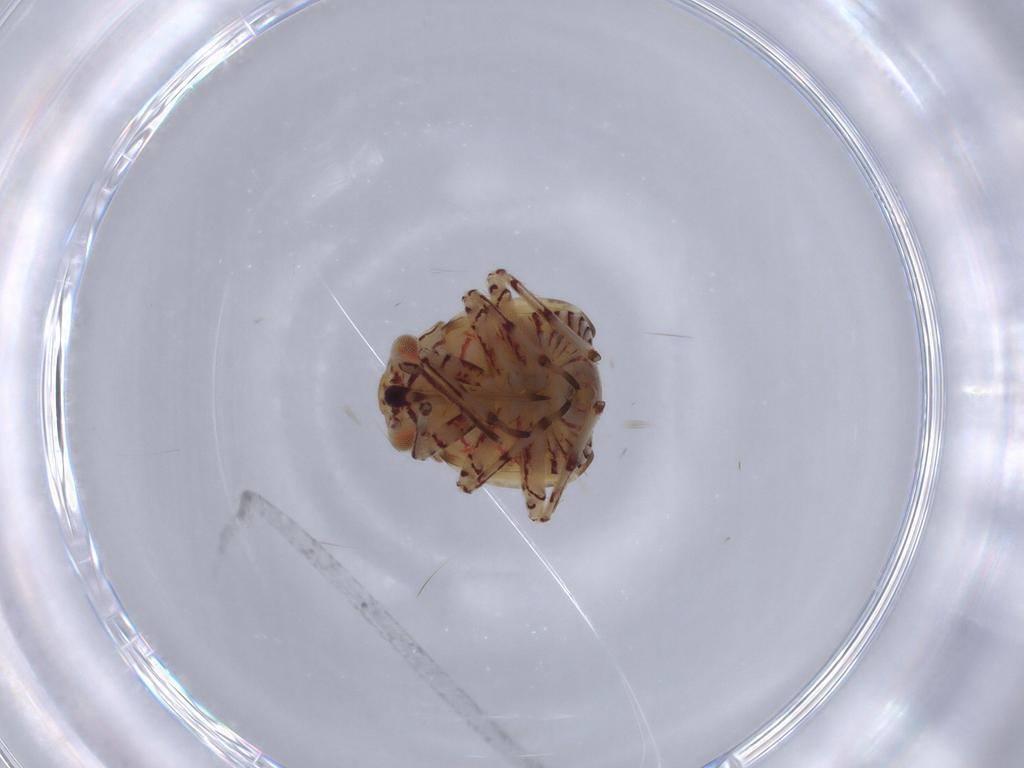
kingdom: Animalia
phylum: Arthropoda
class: Insecta
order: Hemiptera
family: Miridae
